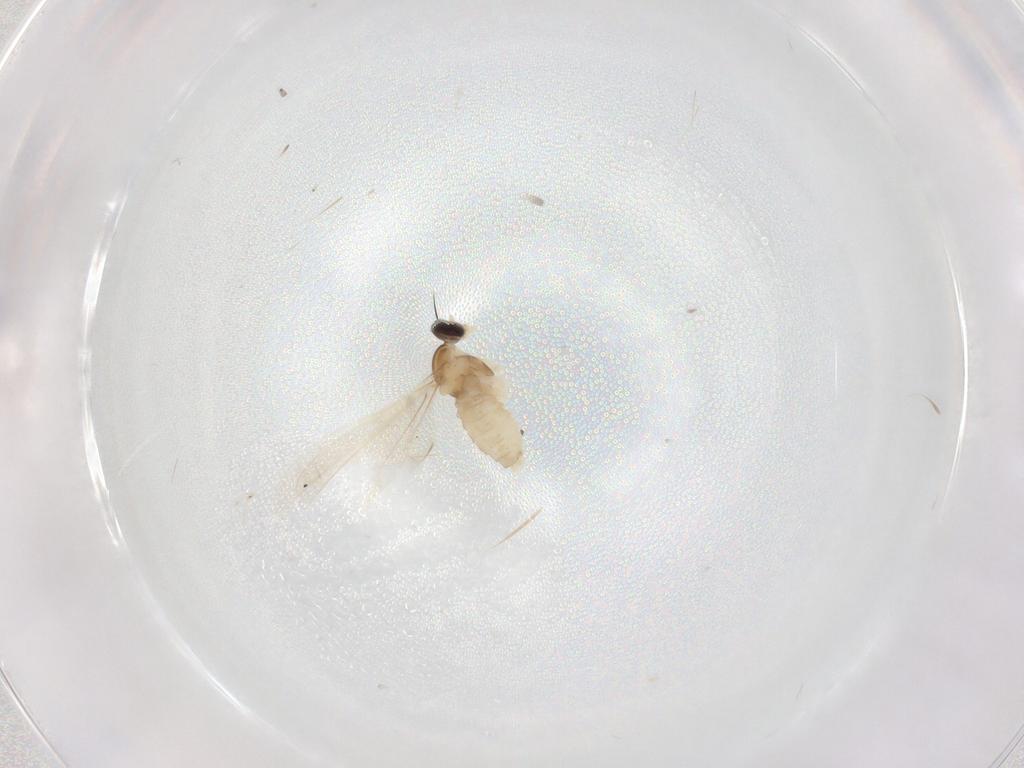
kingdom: Animalia
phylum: Arthropoda
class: Insecta
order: Diptera
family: Cecidomyiidae
